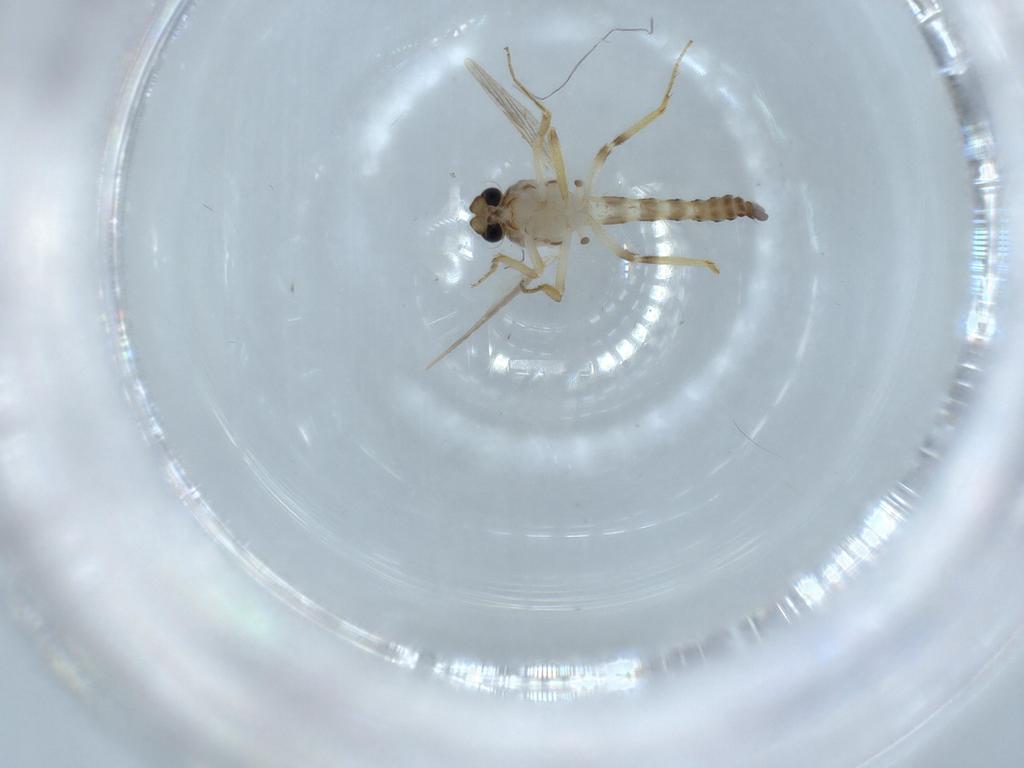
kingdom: Animalia
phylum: Arthropoda
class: Insecta
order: Diptera
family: Ceratopogonidae
